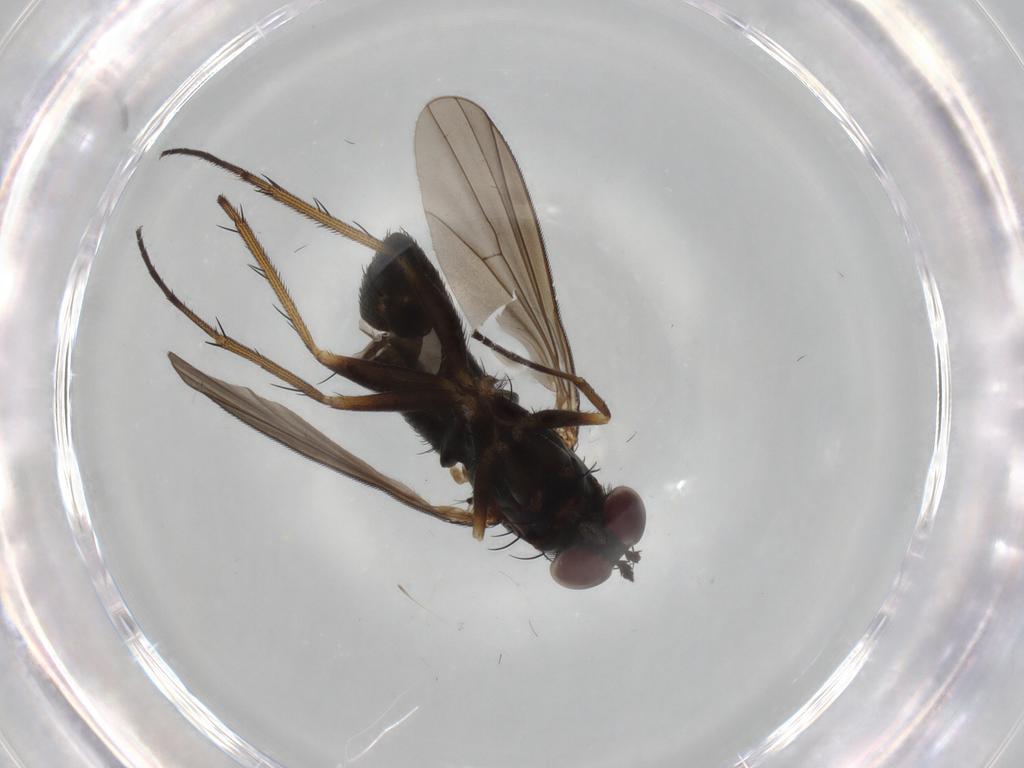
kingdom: Animalia
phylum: Arthropoda
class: Insecta
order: Diptera
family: Dolichopodidae
